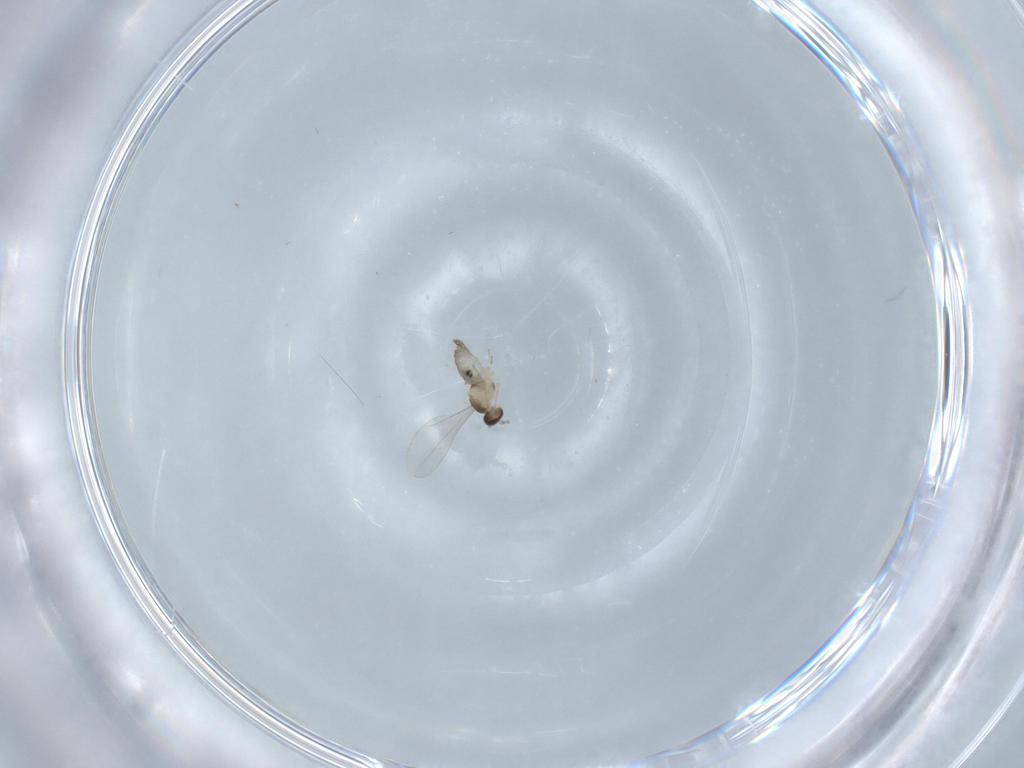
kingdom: Animalia
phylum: Arthropoda
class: Insecta
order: Diptera
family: Cecidomyiidae
